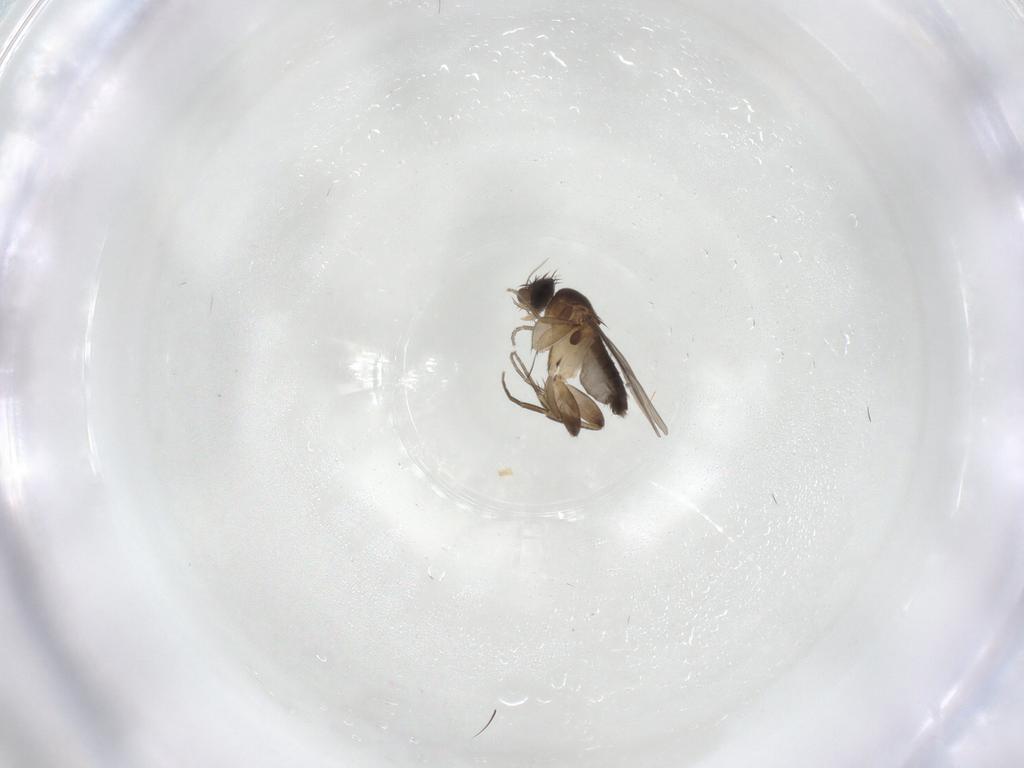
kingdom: Animalia
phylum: Arthropoda
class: Insecta
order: Diptera
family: Phoridae
